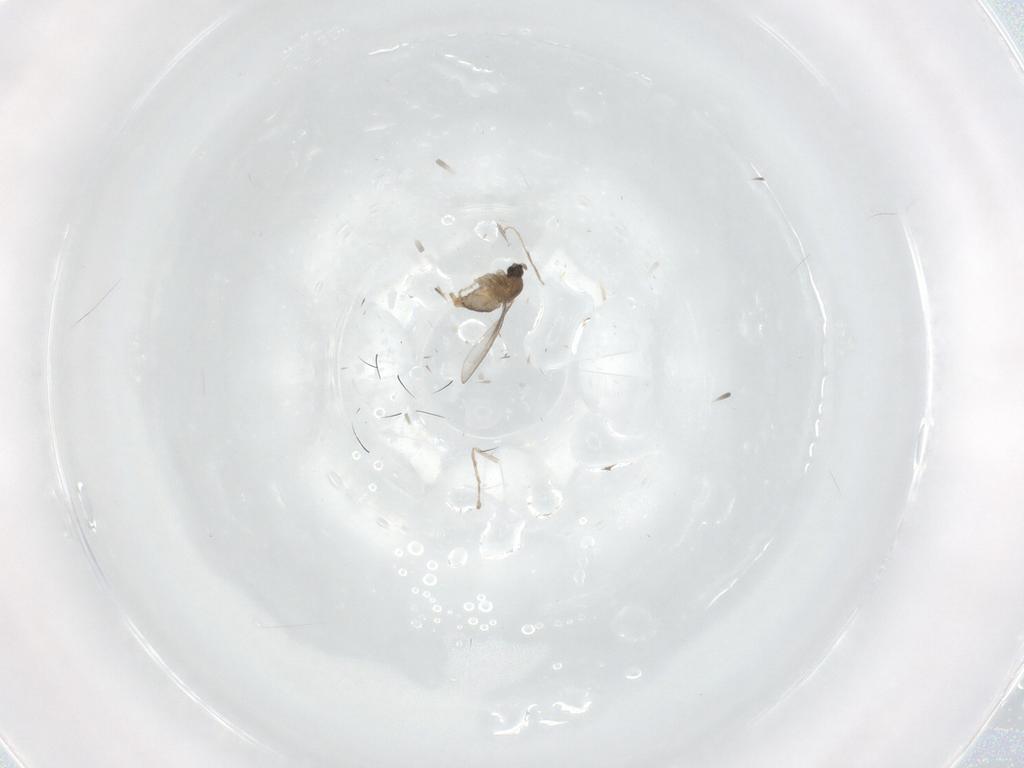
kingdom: Animalia
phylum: Arthropoda
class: Insecta
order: Diptera
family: Cecidomyiidae
